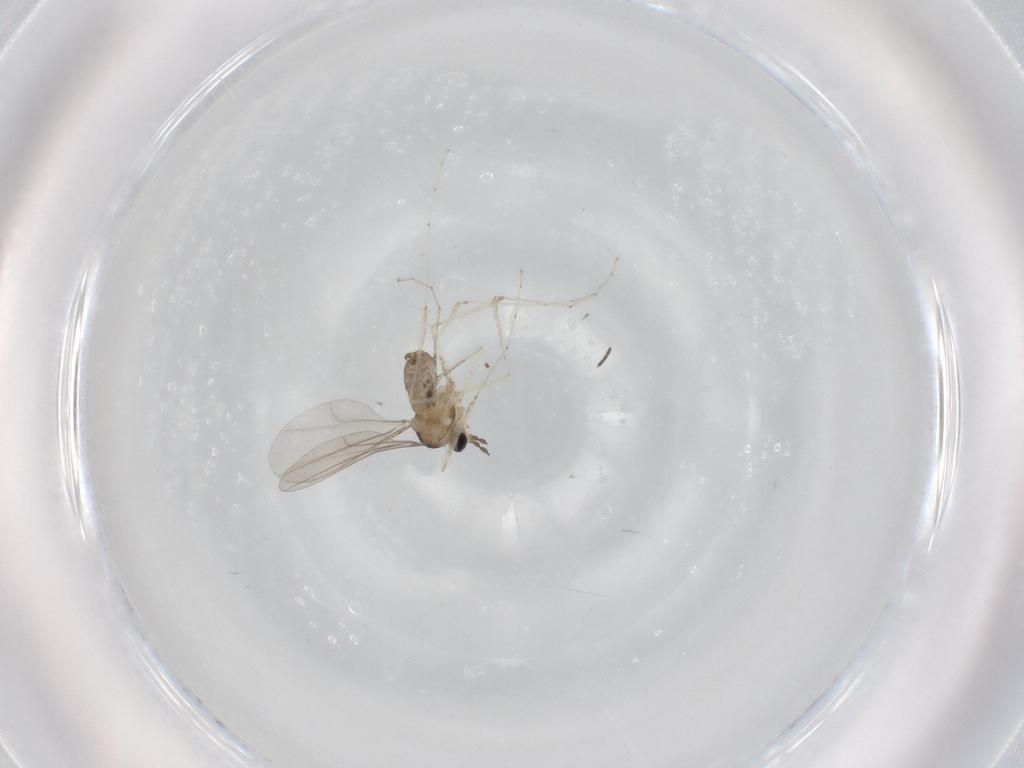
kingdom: Animalia
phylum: Arthropoda
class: Insecta
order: Diptera
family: Cecidomyiidae
